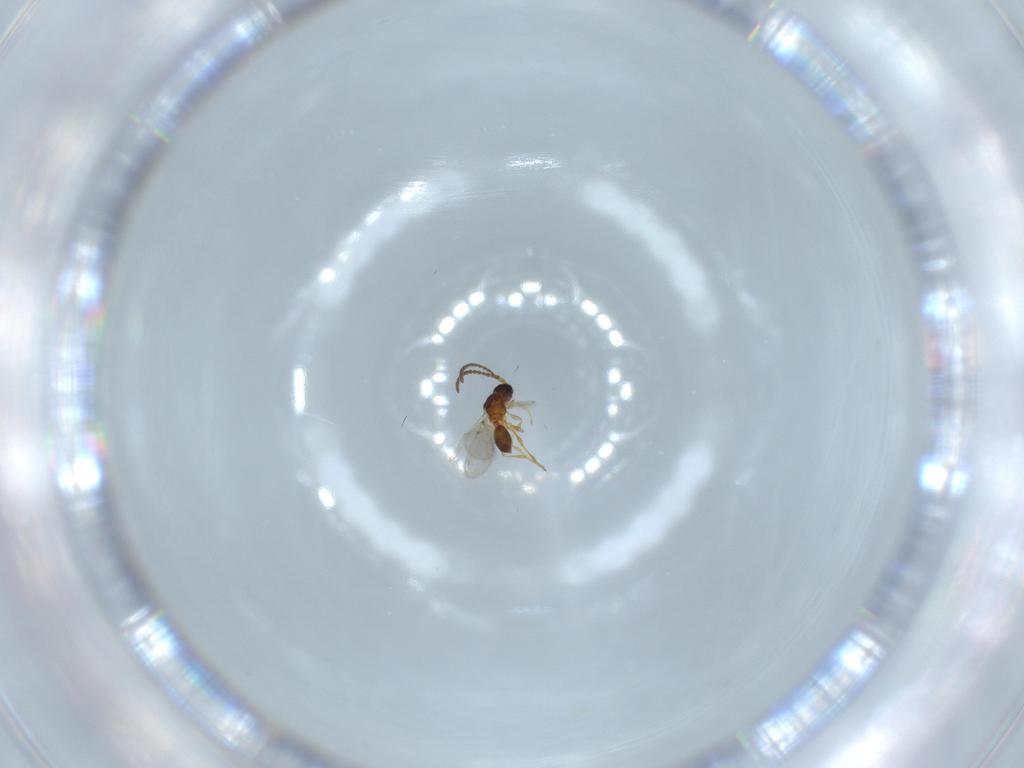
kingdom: Animalia
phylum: Arthropoda
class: Insecta
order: Hymenoptera
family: Diapriidae
